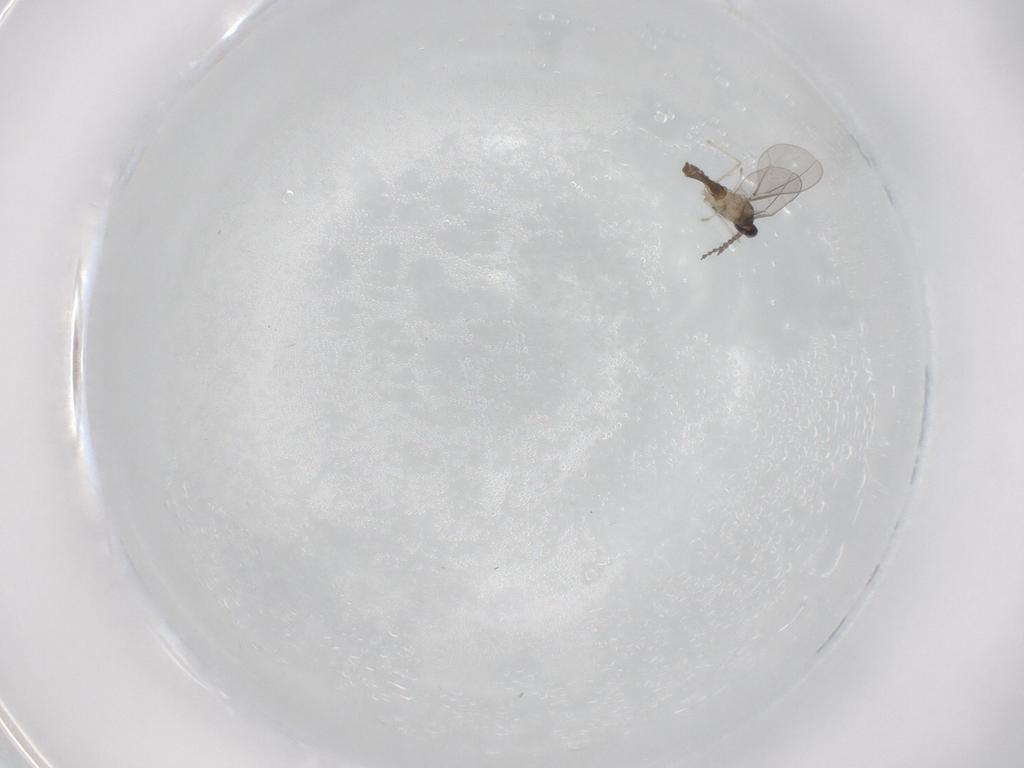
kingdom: Animalia
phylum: Arthropoda
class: Insecta
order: Diptera
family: Cecidomyiidae
